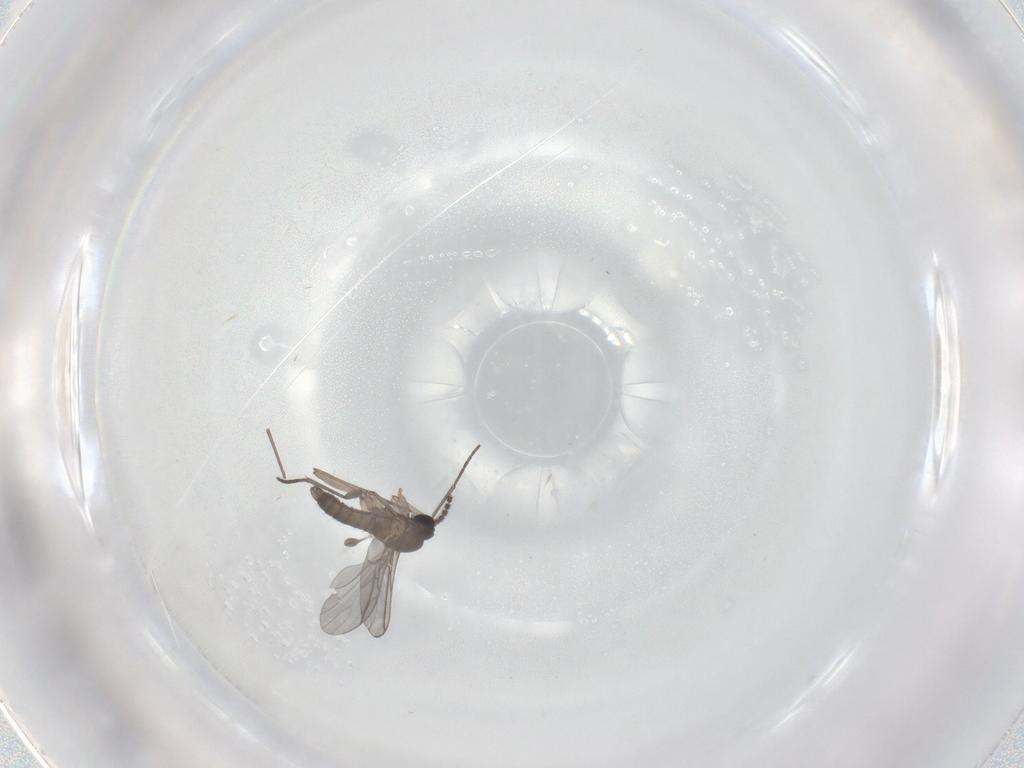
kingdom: Animalia
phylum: Arthropoda
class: Insecta
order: Diptera
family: Sciaridae
